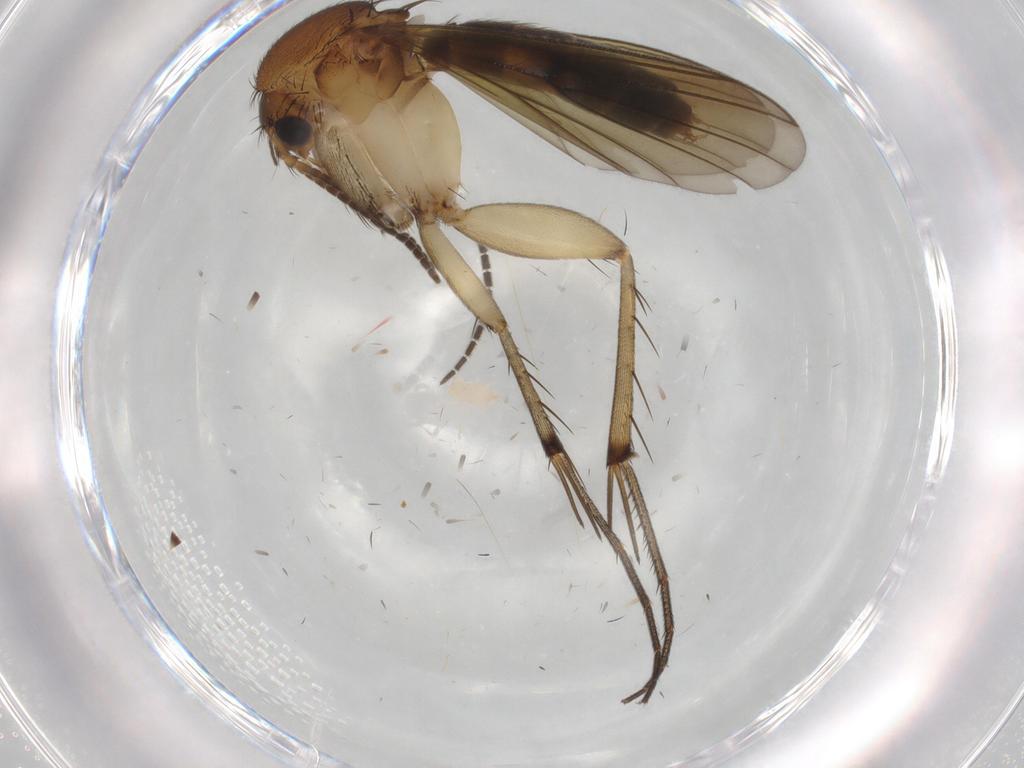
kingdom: Animalia
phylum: Arthropoda
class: Insecta
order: Diptera
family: Mycetophilidae
